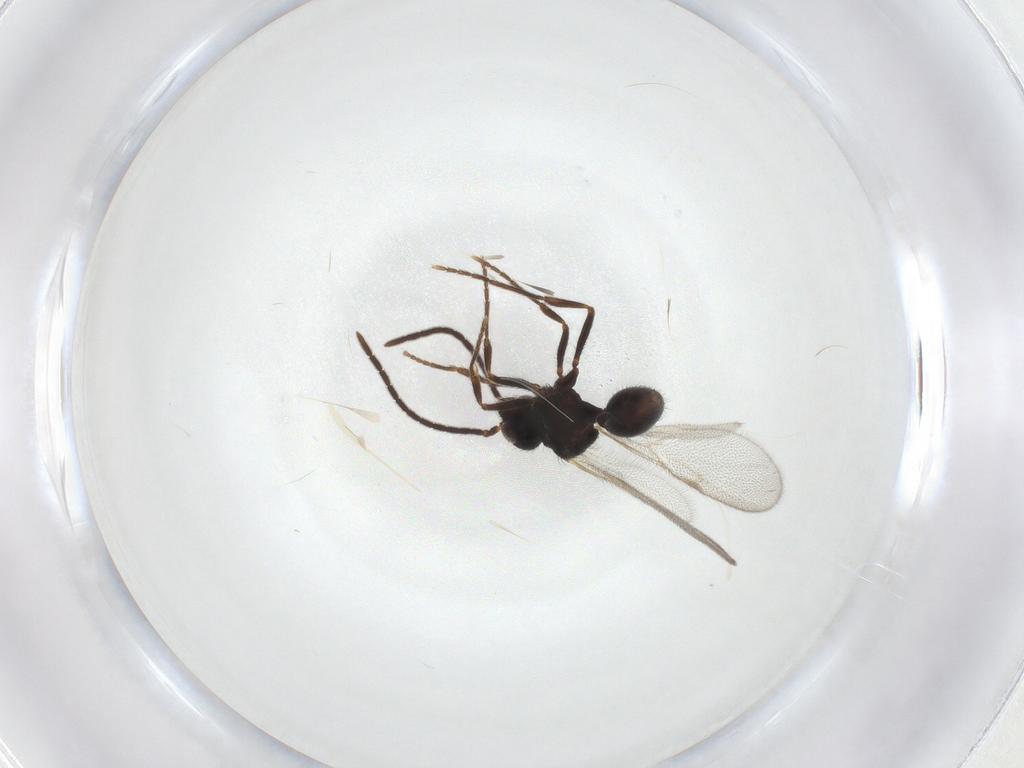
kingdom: Animalia
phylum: Arthropoda
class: Insecta
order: Hymenoptera
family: Formicidae
